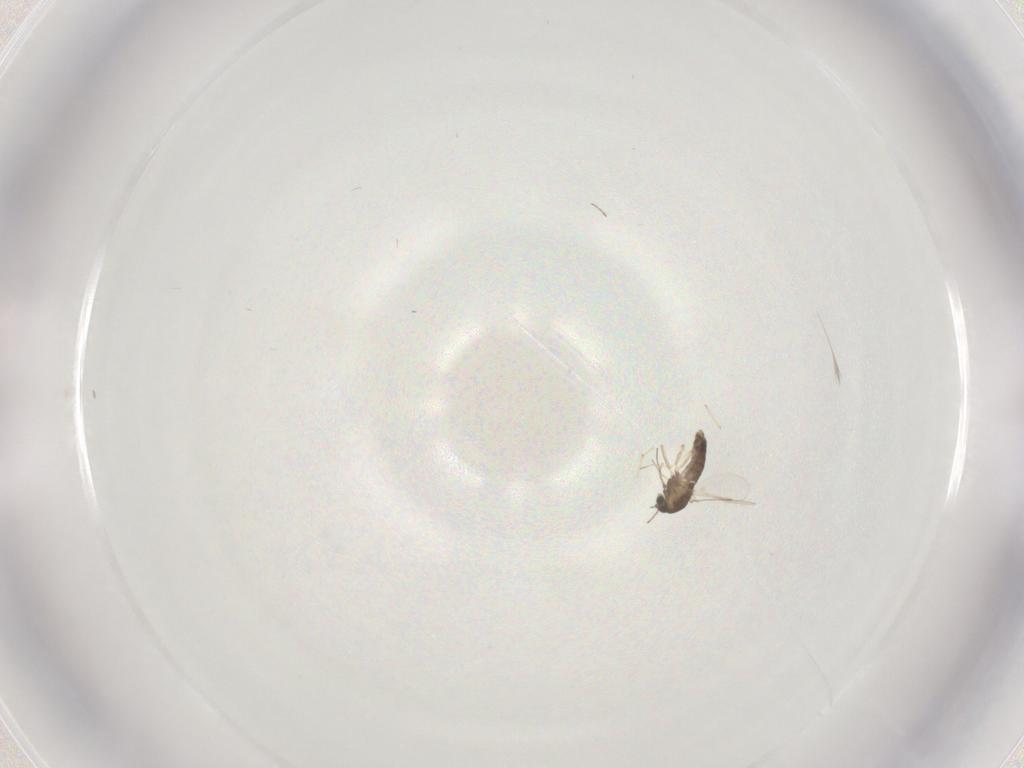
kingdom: Animalia
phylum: Arthropoda
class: Insecta
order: Diptera
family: Chironomidae
